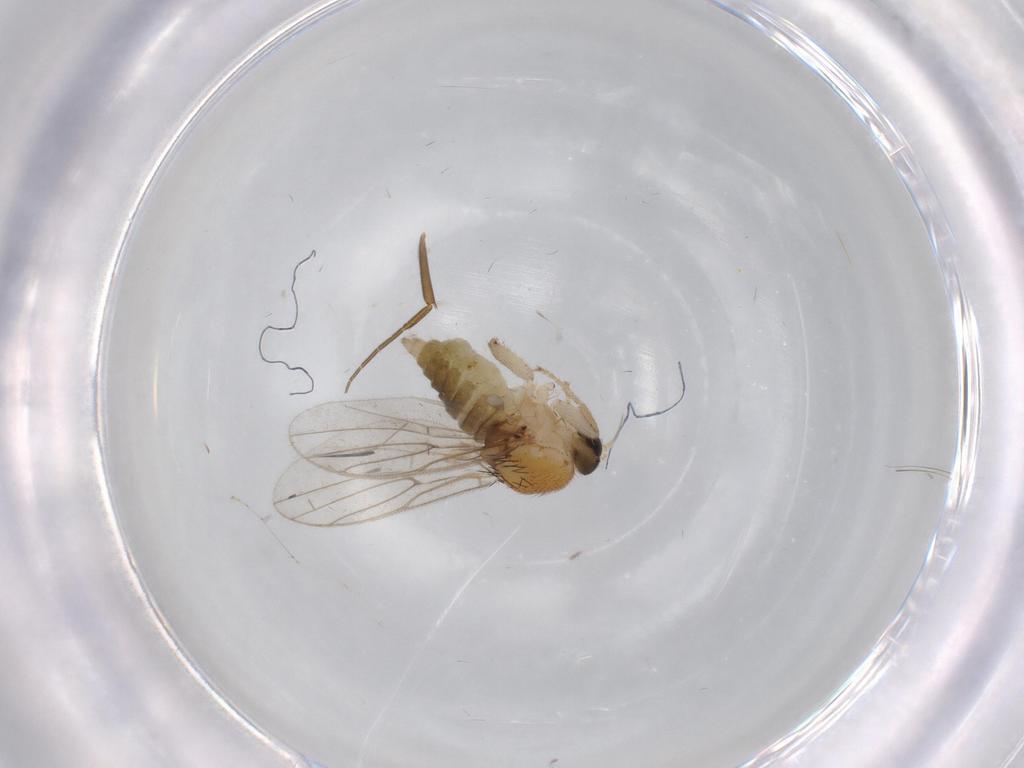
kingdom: Animalia
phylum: Arthropoda
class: Insecta
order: Diptera
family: Hybotidae
